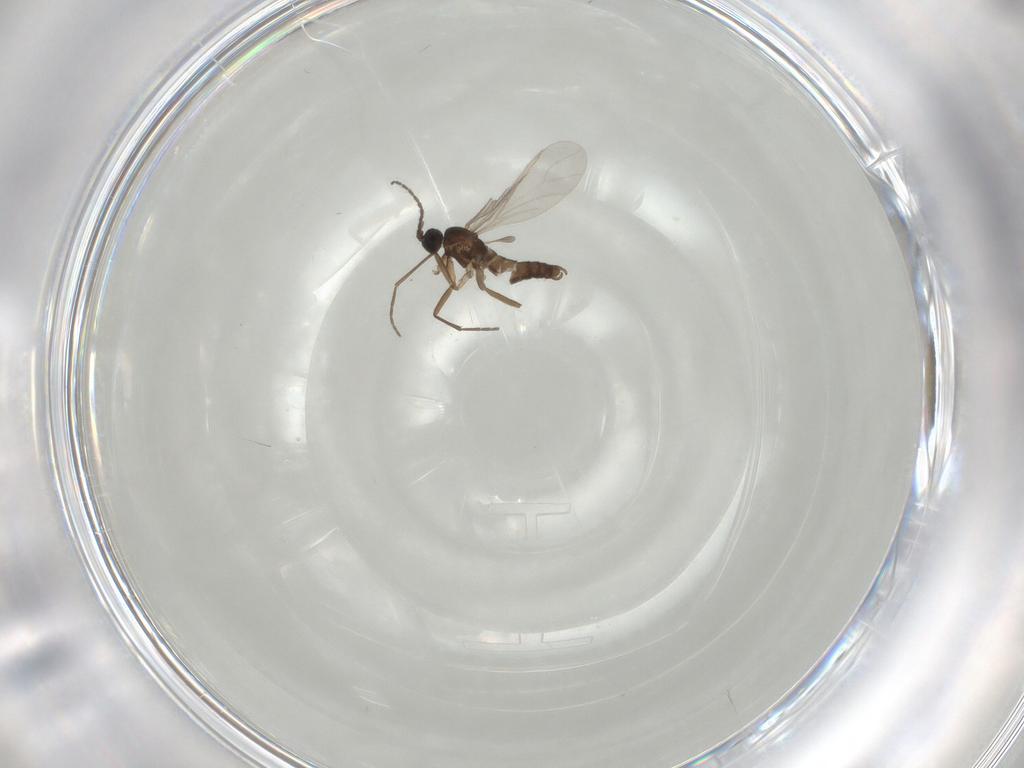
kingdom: Animalia
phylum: Arthropoda
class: Insecta
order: Diptera
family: Sciaridae
